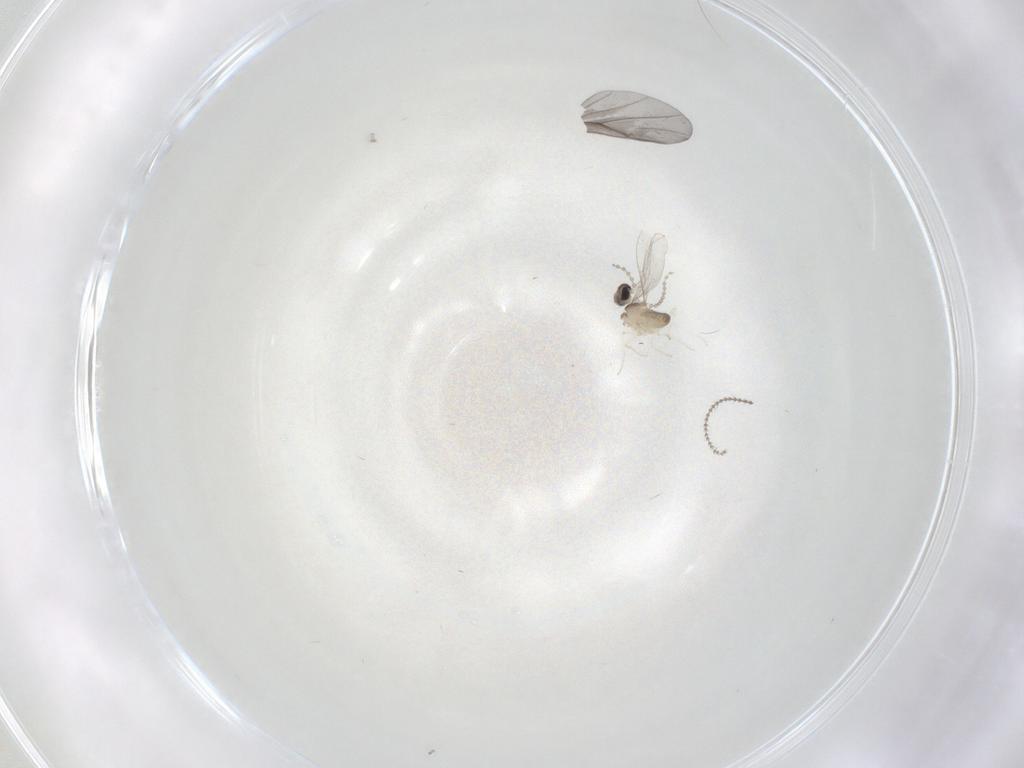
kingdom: Animalia
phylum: Arthropoda
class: Insecta
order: Diptera
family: Cecidomyiidae
